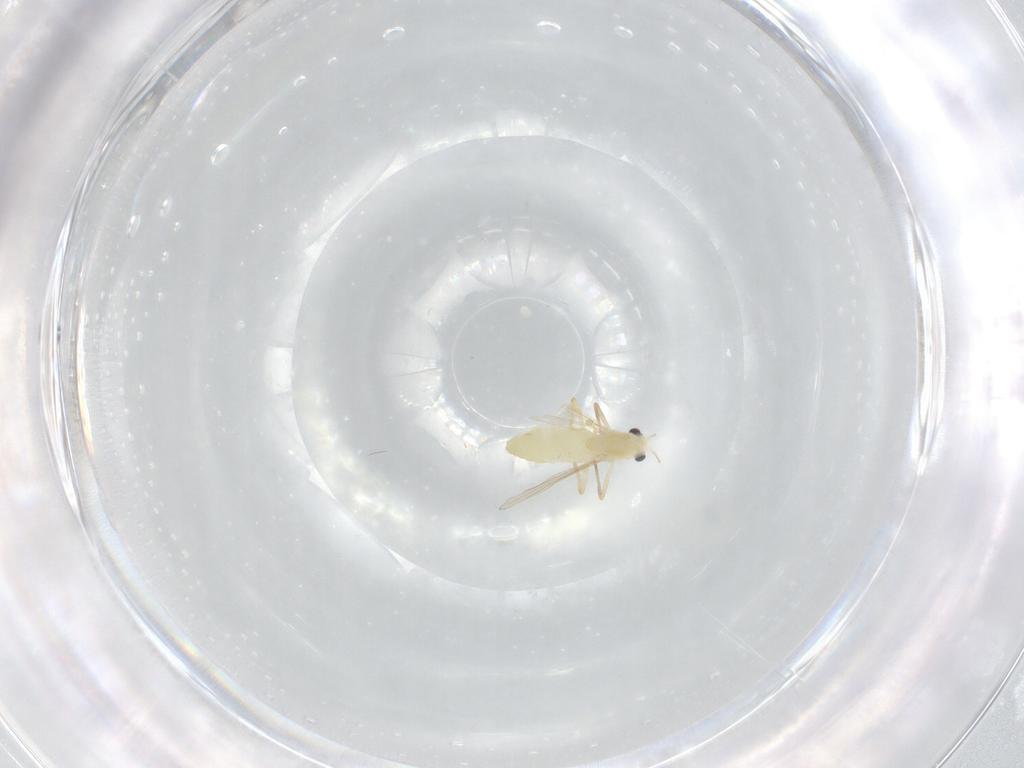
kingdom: Animalia
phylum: Arthropoda
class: Insecta
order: Diptera
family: Chironomidae
